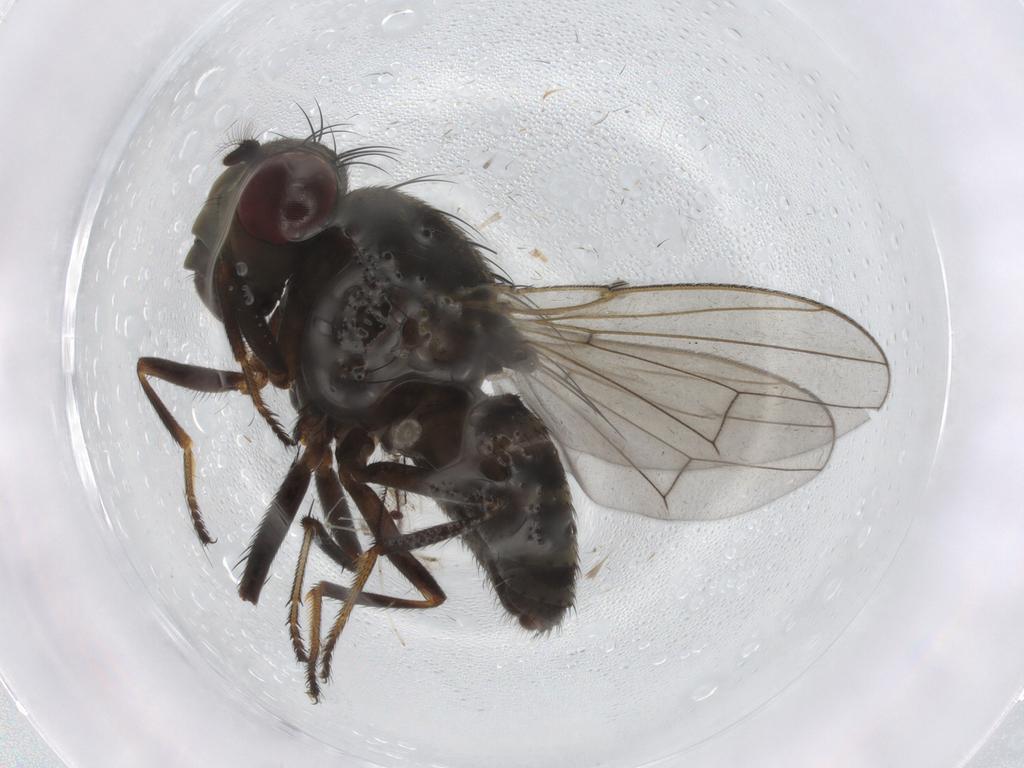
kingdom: Animalia
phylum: Arthropoda
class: Insecta
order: Diptera
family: Ephydridae
